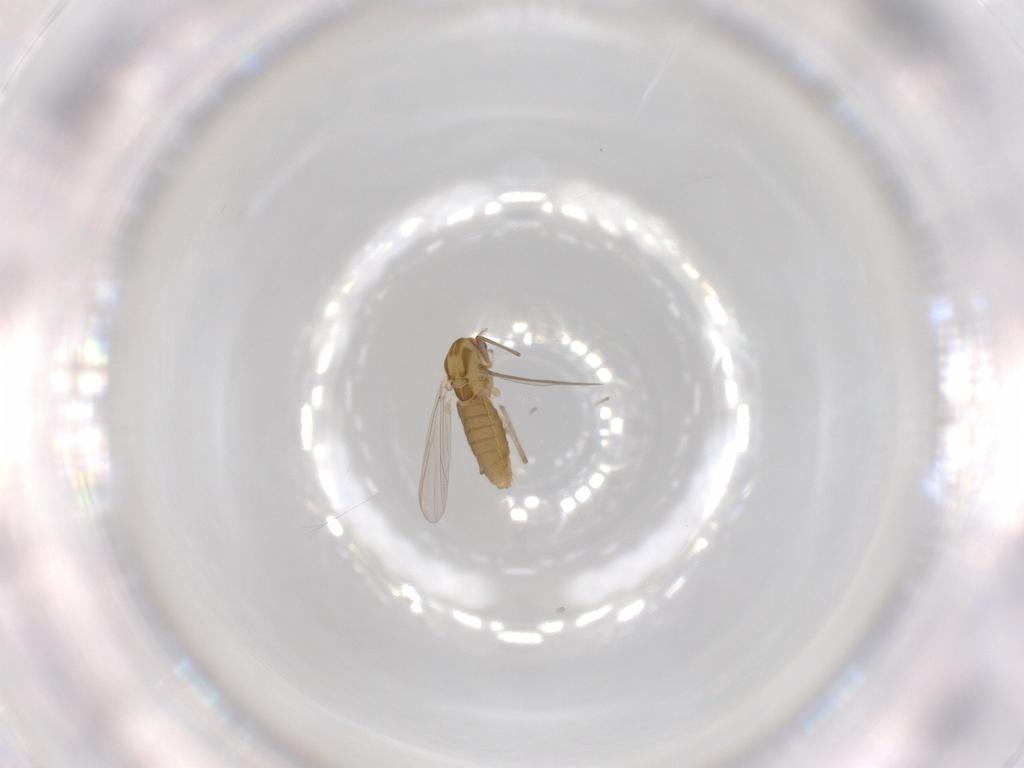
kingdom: Animalia
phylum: Arthropoda
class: Insecta
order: Diptera
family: Chironomidae
